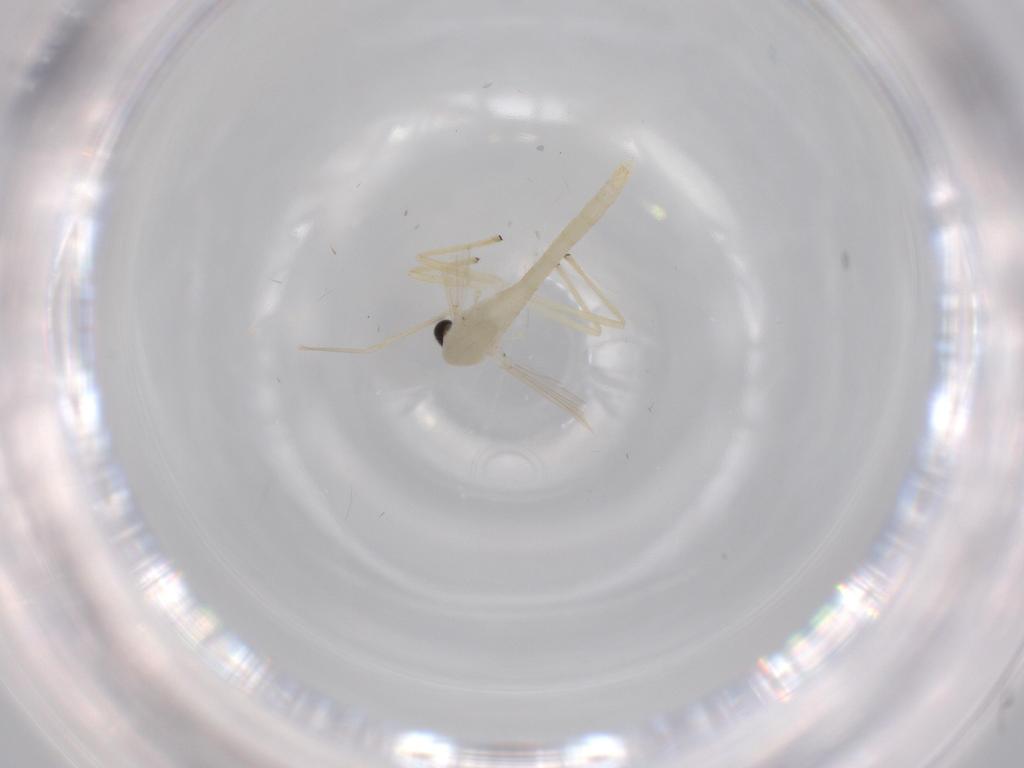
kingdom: Animalia
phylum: Arthropoda
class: Insecta
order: Diptera
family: Chironomidae
